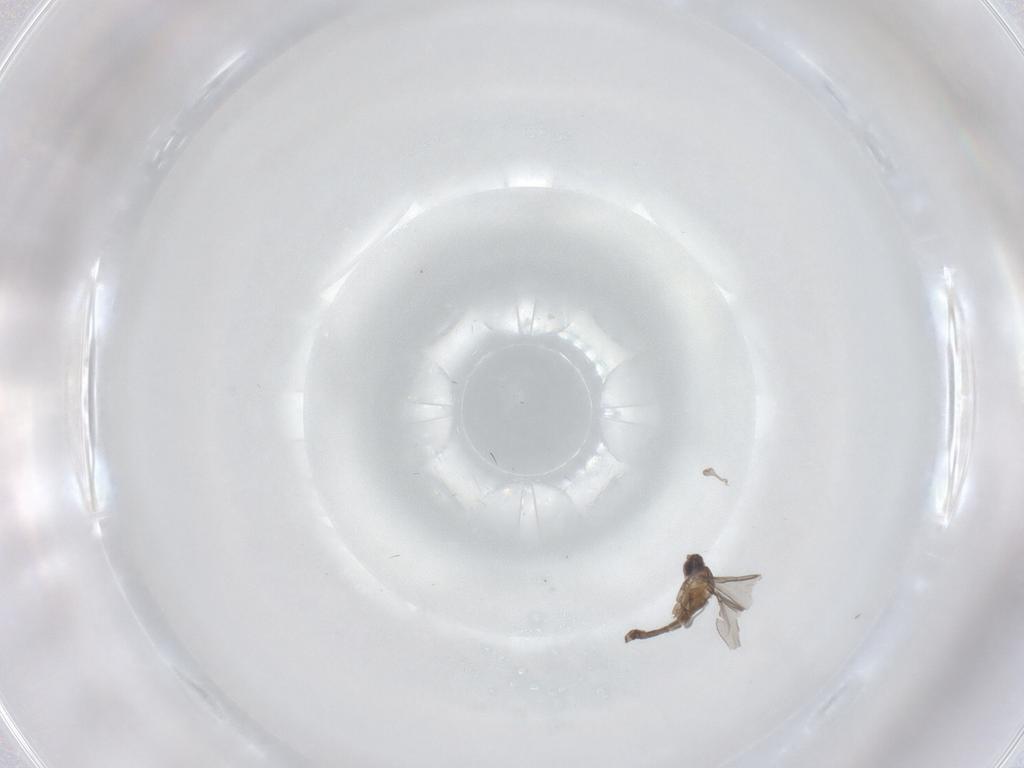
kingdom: Animalia
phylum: Arthropoda
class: Insecta
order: Diptera
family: Cecidomyiidae
